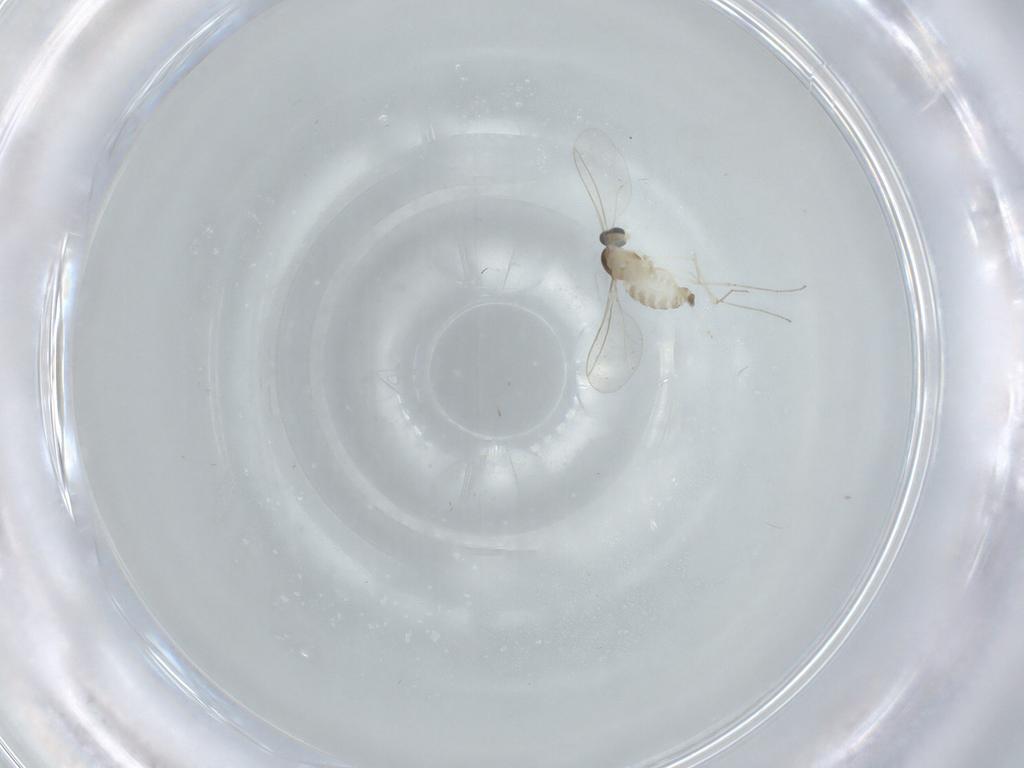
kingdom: Animalia
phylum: Arthropoda
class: Insecta
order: Diptera
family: Cecidomyiidae
